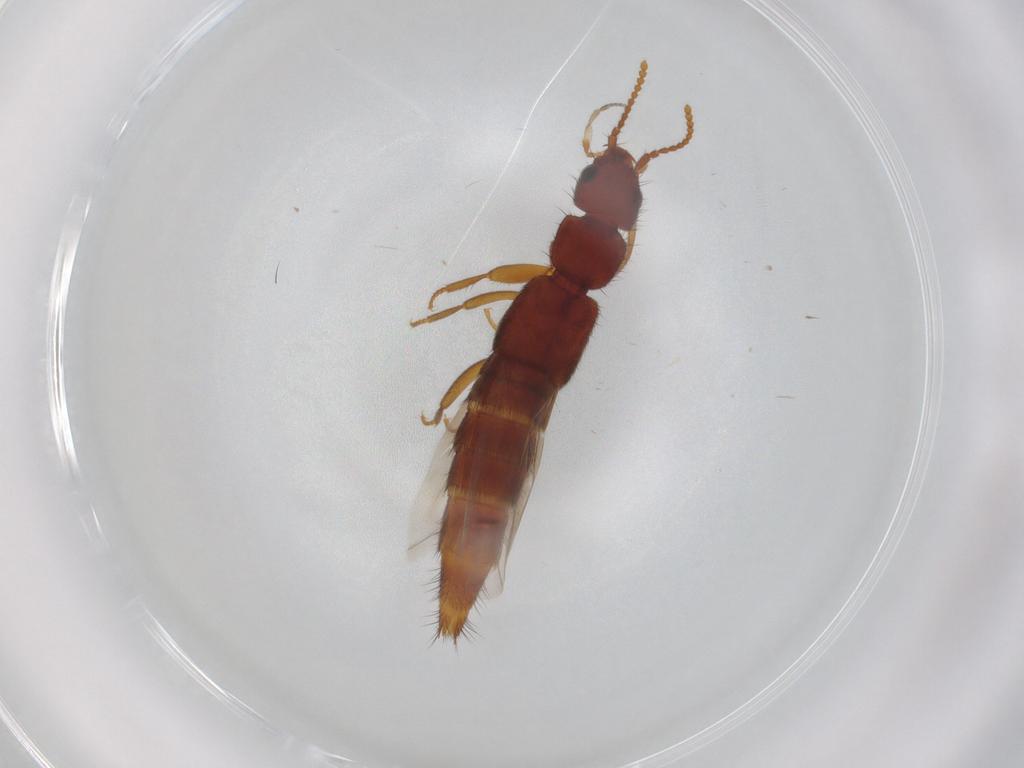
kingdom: Animalia
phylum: Arthropoda
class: Insecta
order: Coleoptera
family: Staphylinidae
